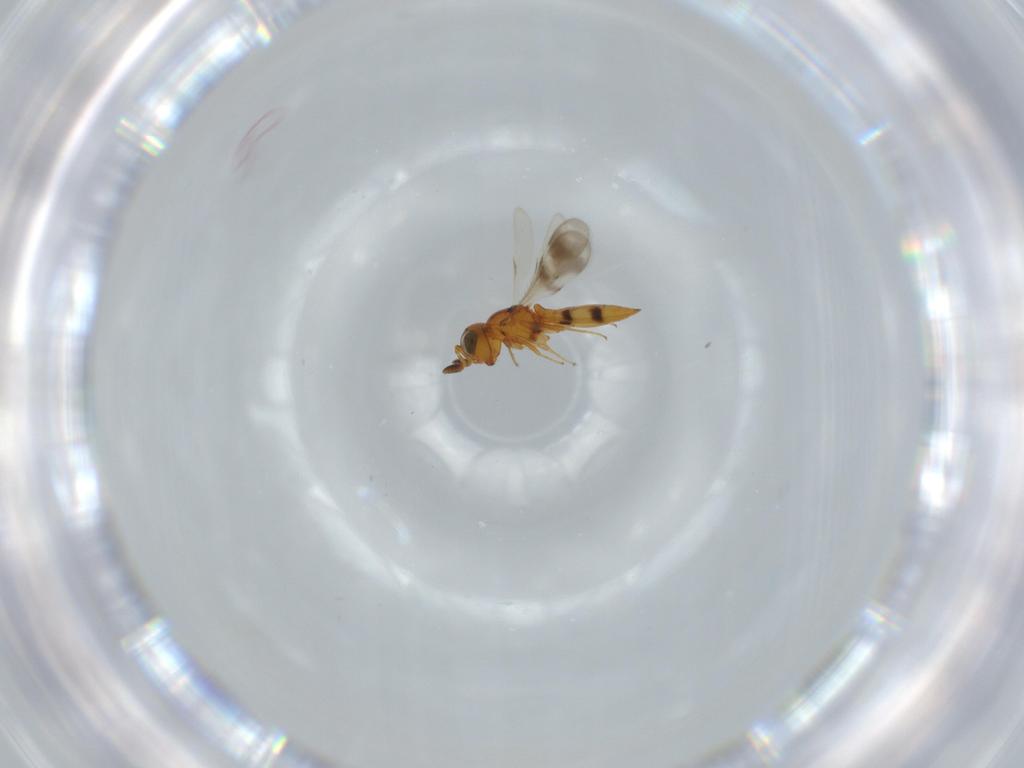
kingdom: Animalia
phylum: Arthropoda
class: Insecta
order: Hymenoptera
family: Scelionidae
